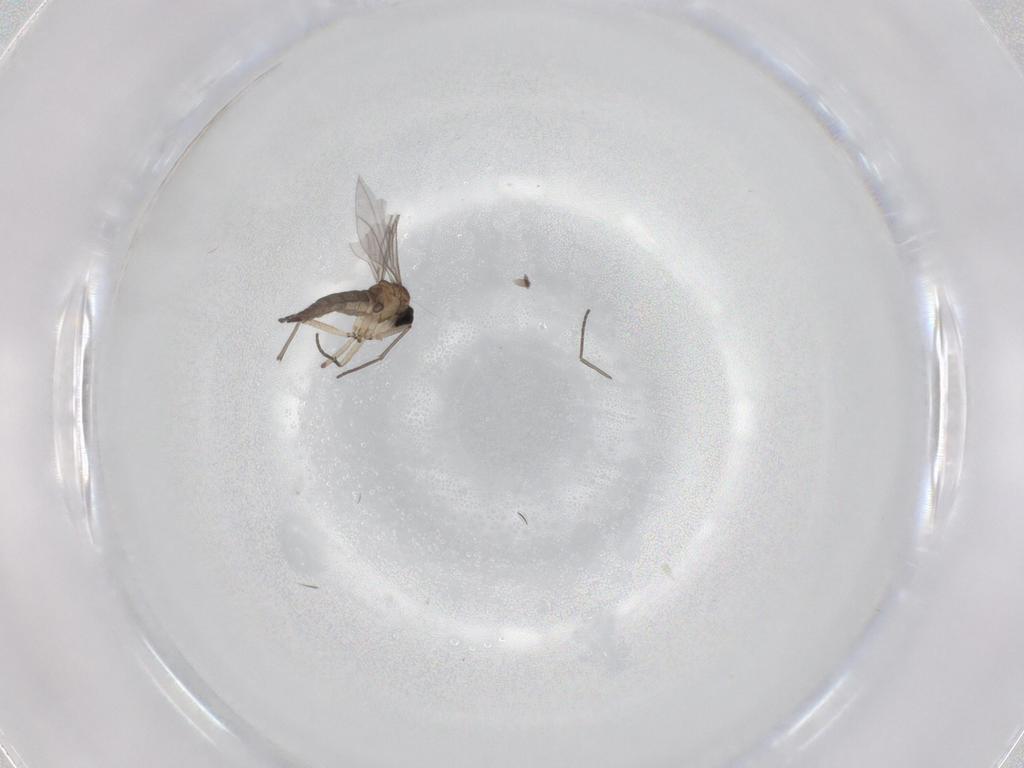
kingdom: Animalia
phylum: Arthropoda
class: Insecta
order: Diptera
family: Sciaridae
